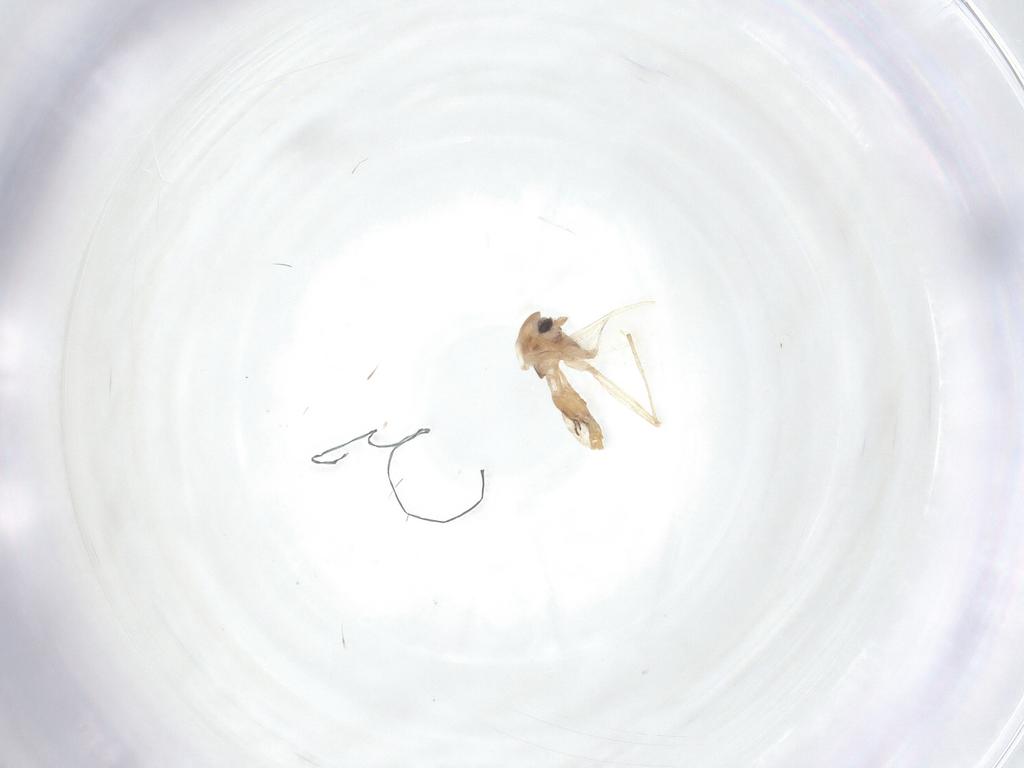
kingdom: Animalia
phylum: Arthropoda
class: Insecta
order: Diptera
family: Chironomidae
